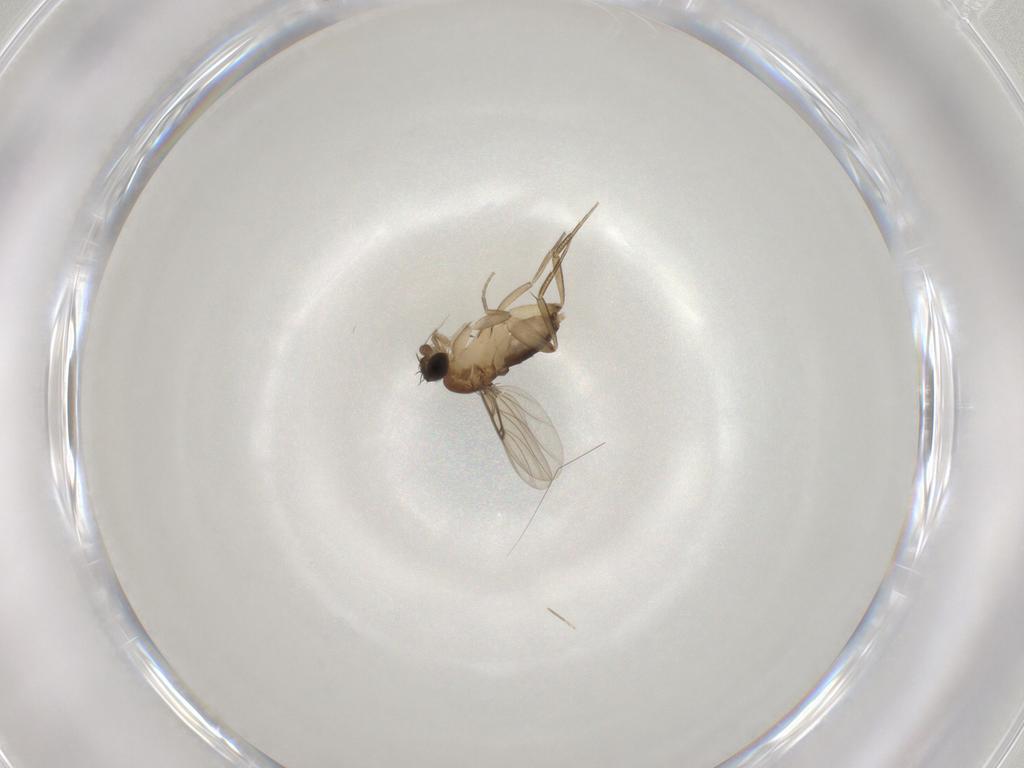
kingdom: Animalia
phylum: Arthropoda
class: Insecta
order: Diptera
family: Phoridae
